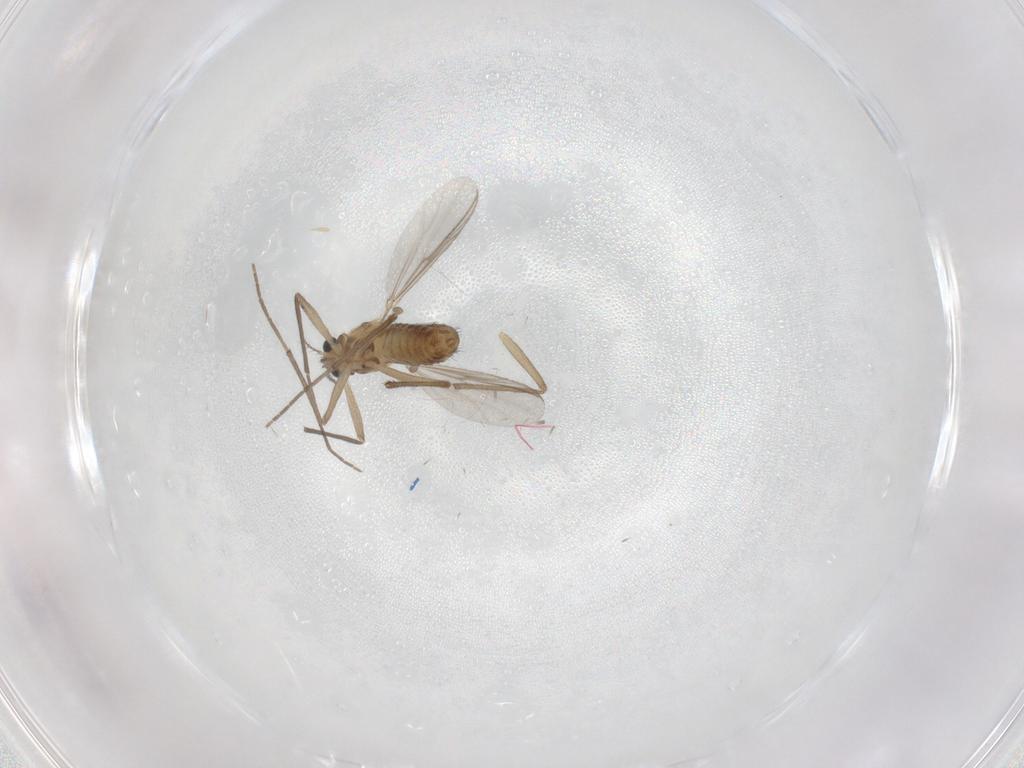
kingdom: Animalia
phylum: Arthropoda
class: Insecta
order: Diptera
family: Chironomidae
